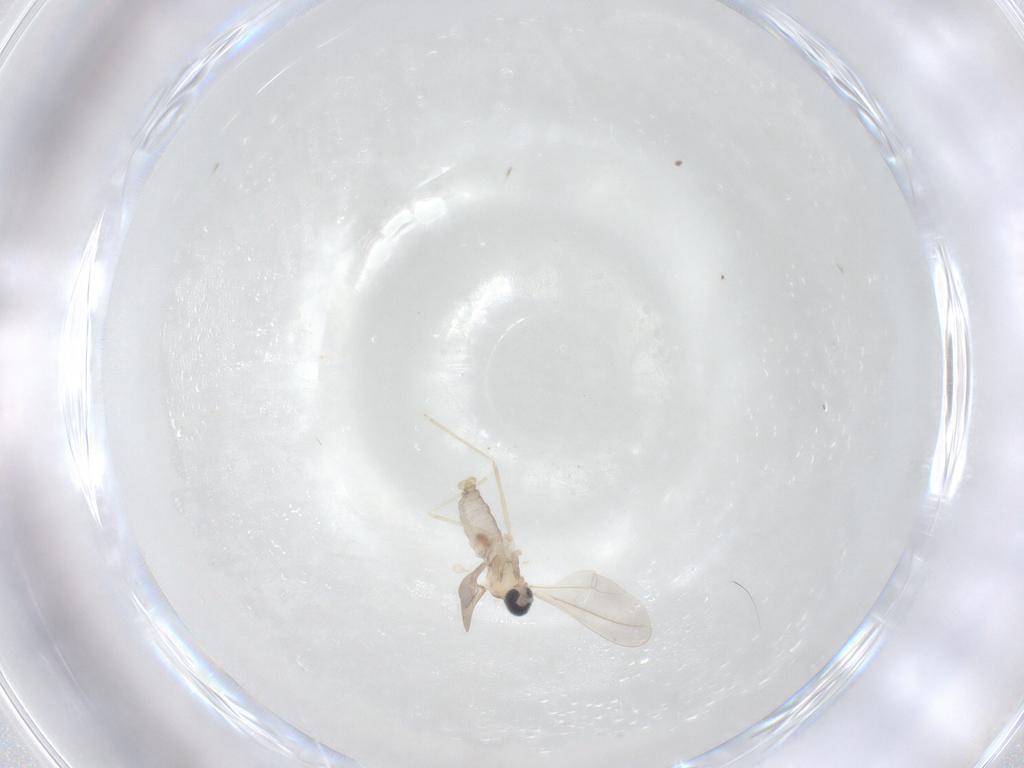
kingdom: Animalia
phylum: Arthropoda
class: Insecta
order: Diptera
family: Cecidomyiidae
